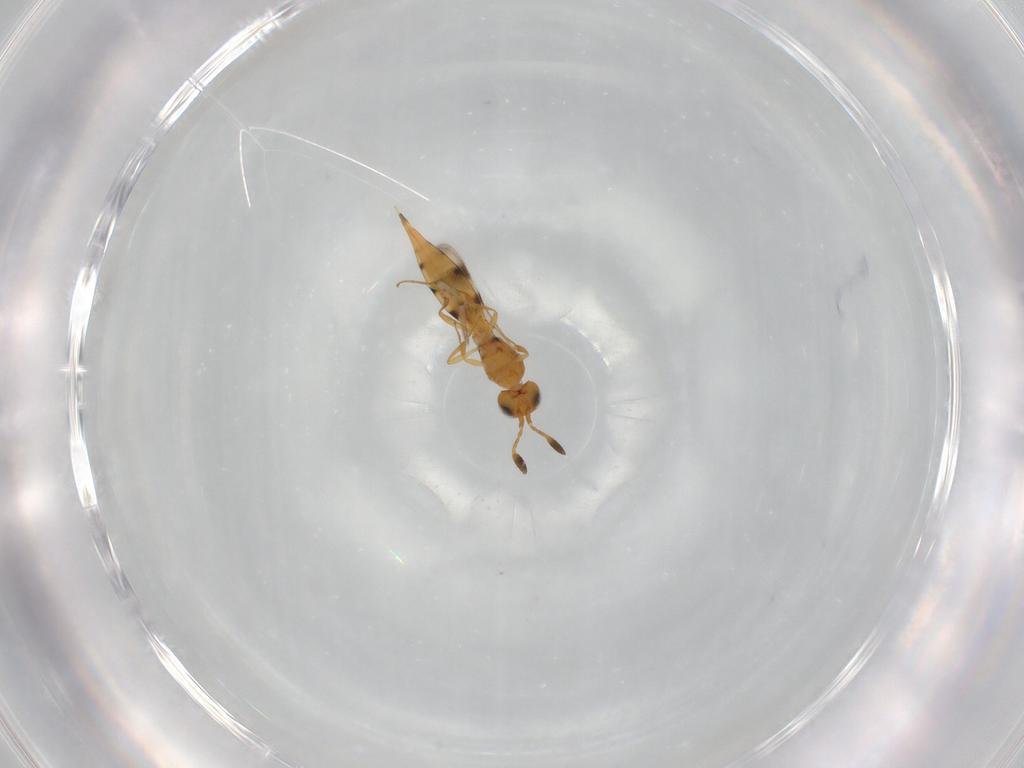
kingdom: Animalia
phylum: Arthropoda
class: Insecta
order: Hymenoptera
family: Scelionidae
